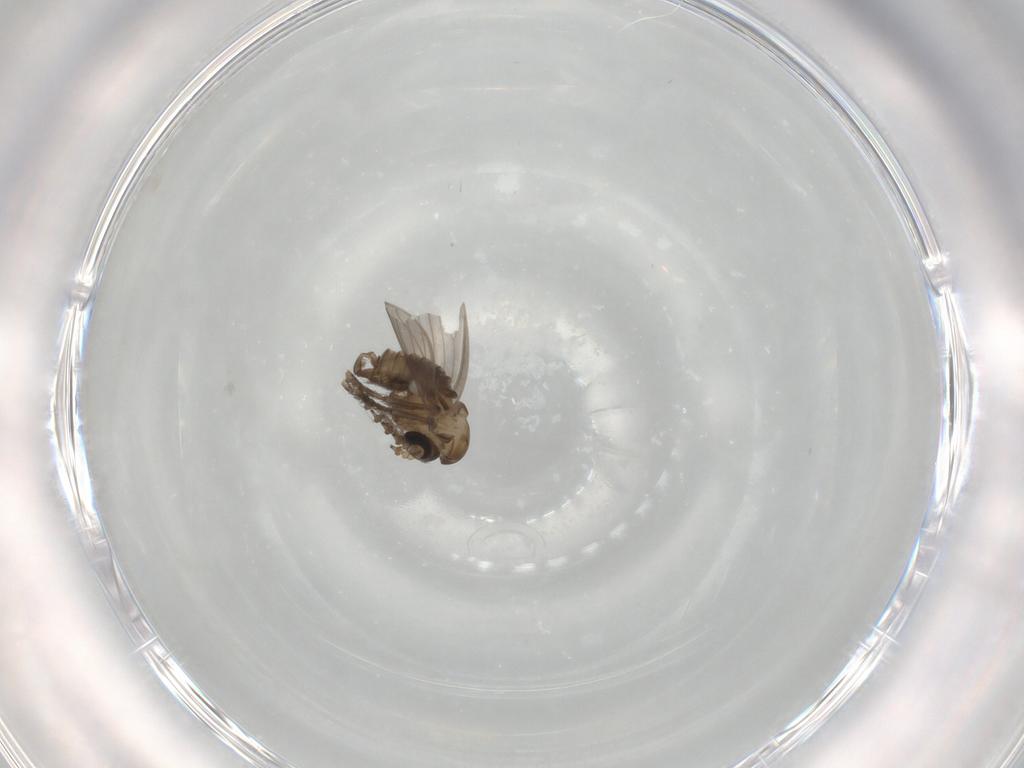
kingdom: Animalia
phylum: Arthropoda
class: Insecta
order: Diptera
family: Psychodidae
